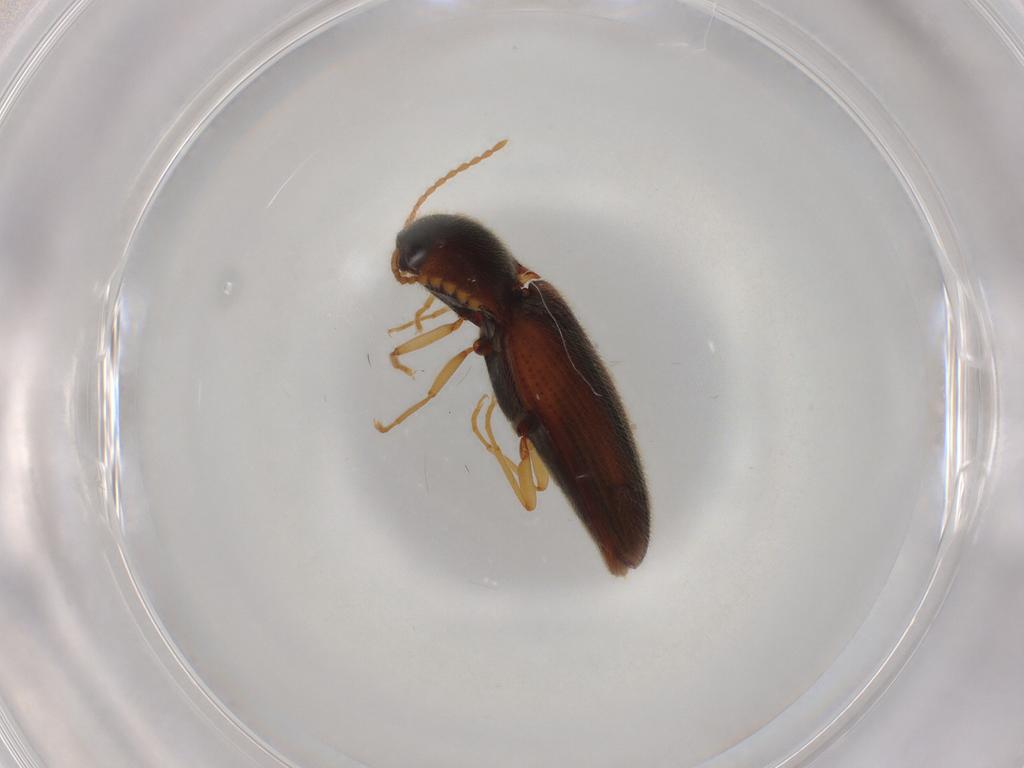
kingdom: Animalia
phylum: Arthropoda
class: Insecta
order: Coleoptera
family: Elateridae
